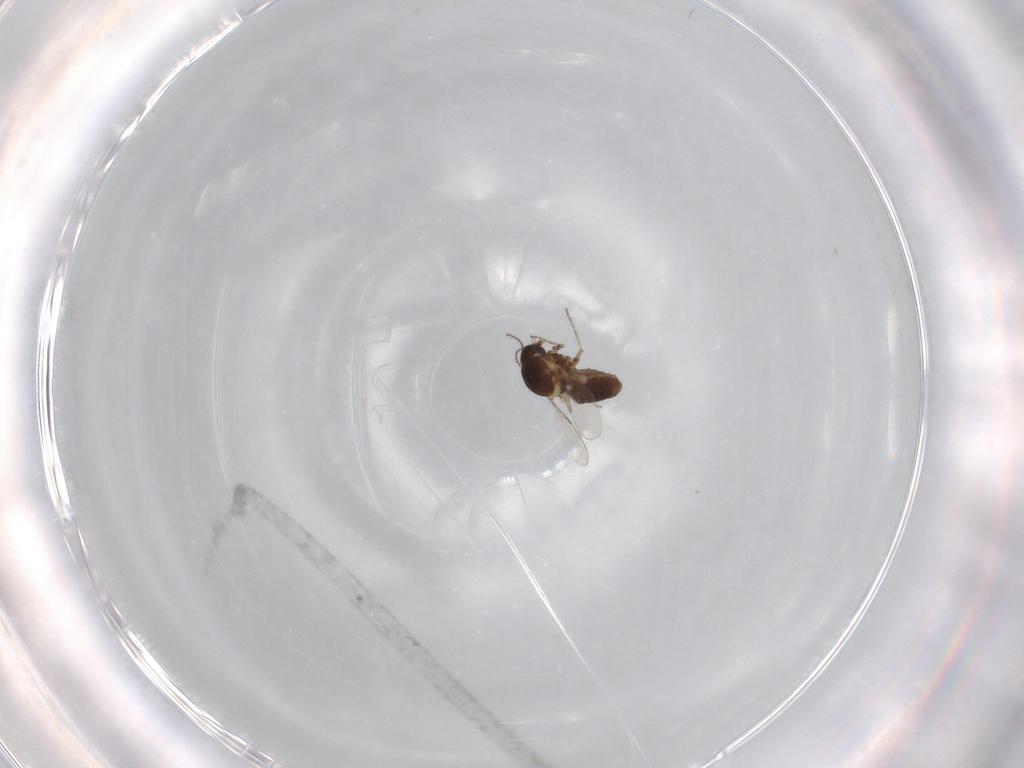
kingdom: Animalia
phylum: Arthropoda
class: Insecta
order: Diptera
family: Ceratopogonidae
